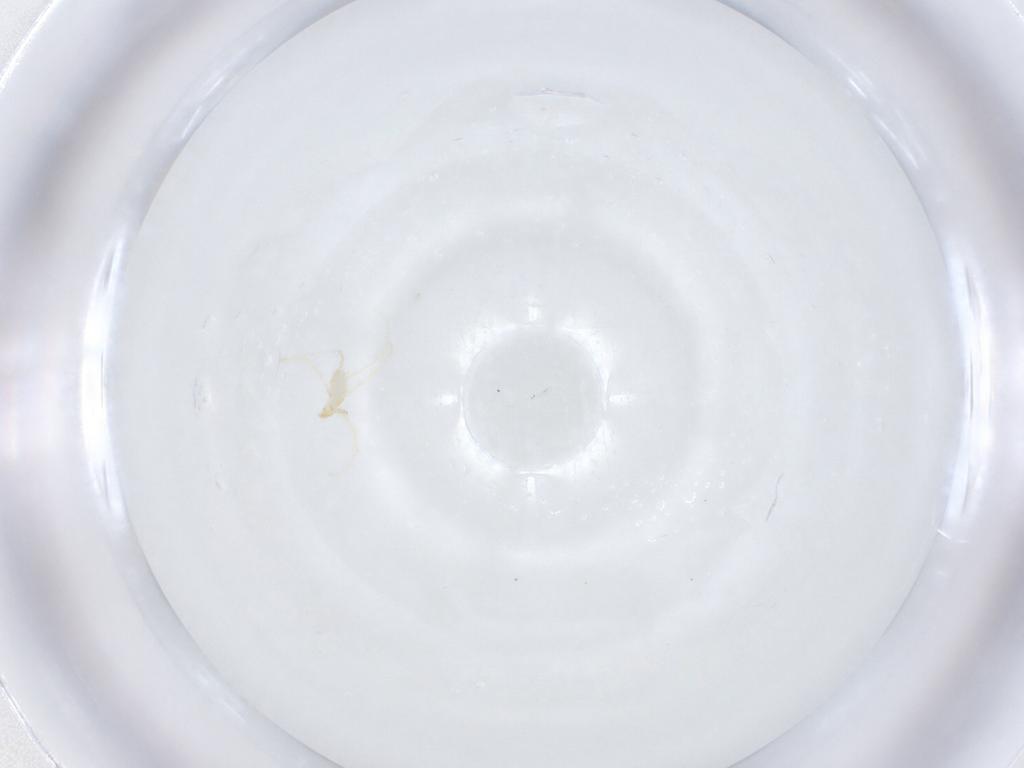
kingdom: Animalia
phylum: Arthropoda
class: Arachnida
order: Trombidiformes
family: Erythraeidae
